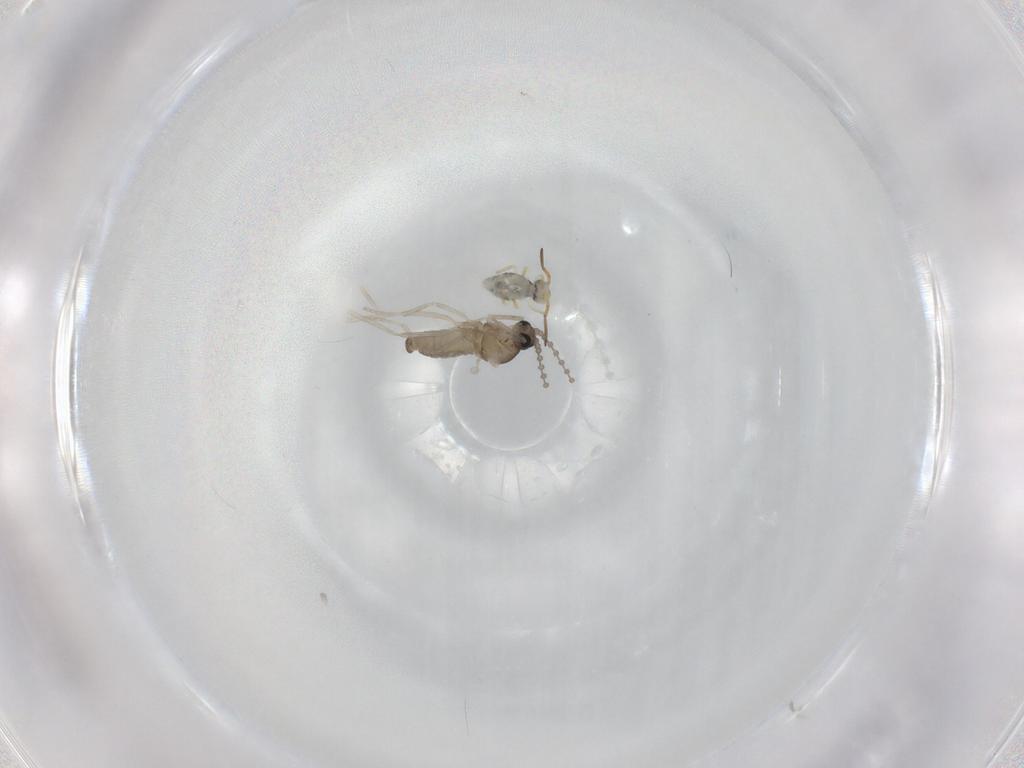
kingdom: Animalia
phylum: Arthropoda
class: Insecta
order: Diptera
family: Cecidomyiidae
